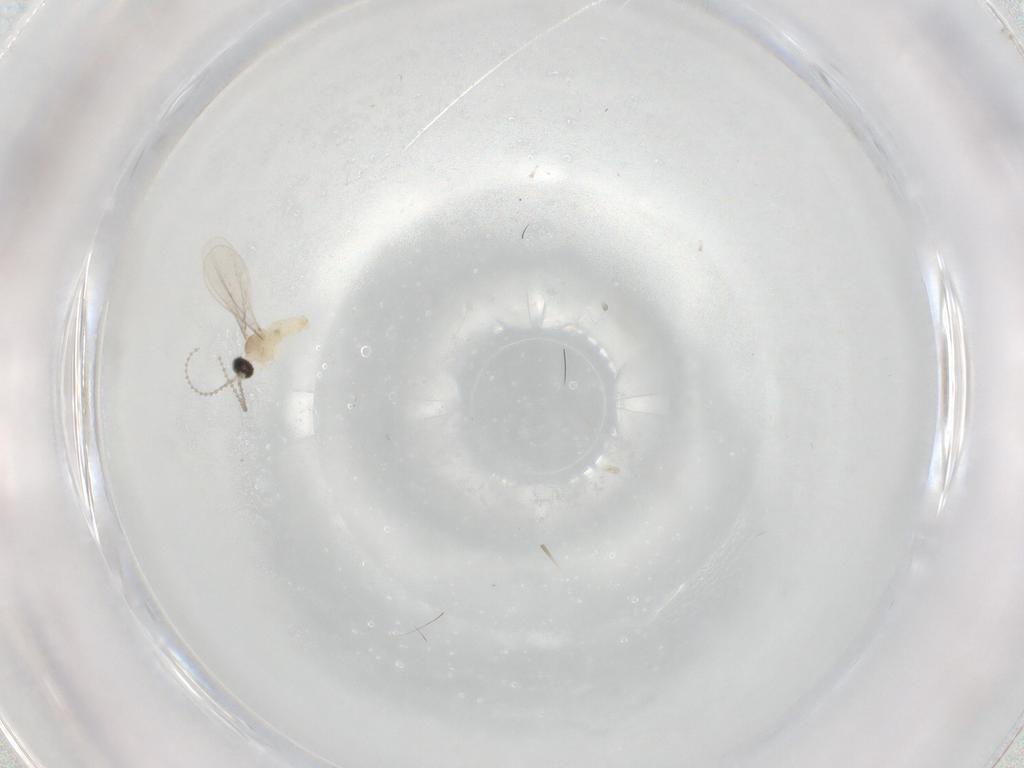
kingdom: Animalia
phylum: Arthropoda
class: Insecta
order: Diptera
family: Cecidomyiidae
